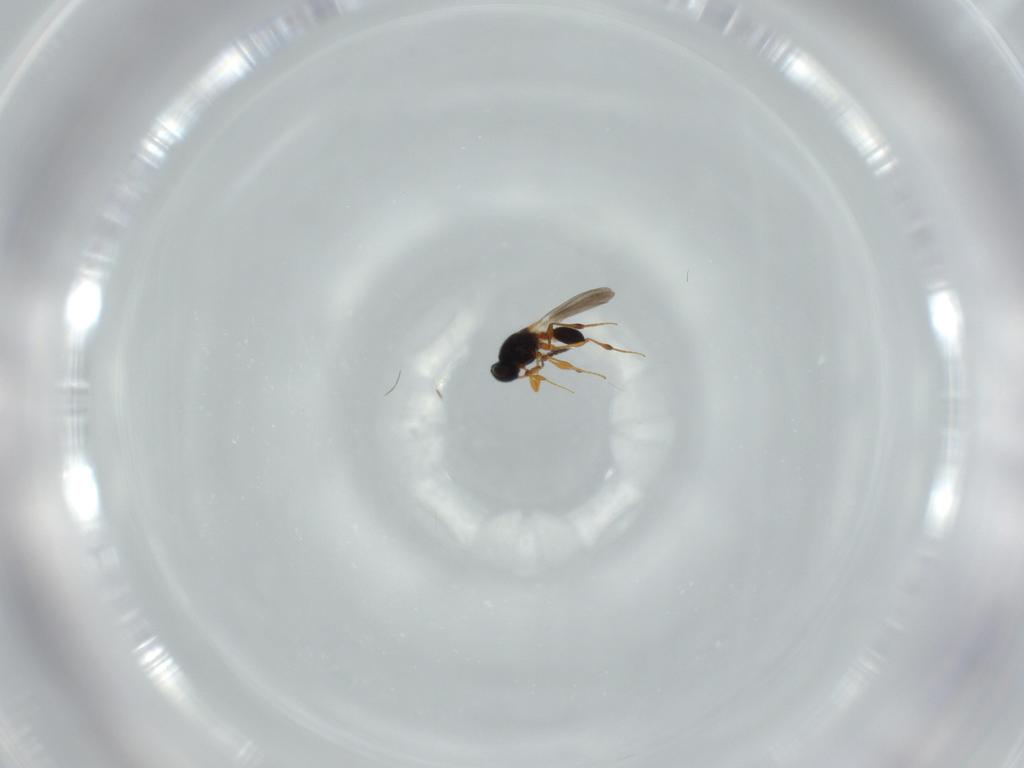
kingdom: Animalia
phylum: Arthropoda
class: Insecta
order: Hymenoptera
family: Platygastridae
